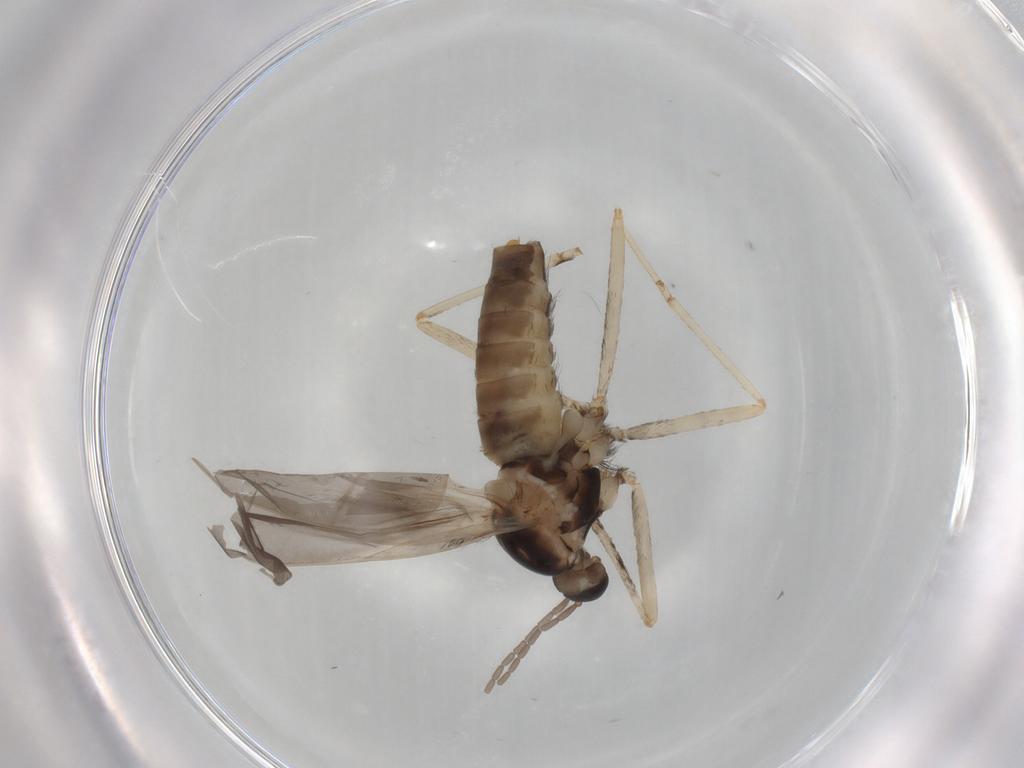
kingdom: Animalia
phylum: Arthropoda
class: Insecta
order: Diptera
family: Cecidomyiidae
